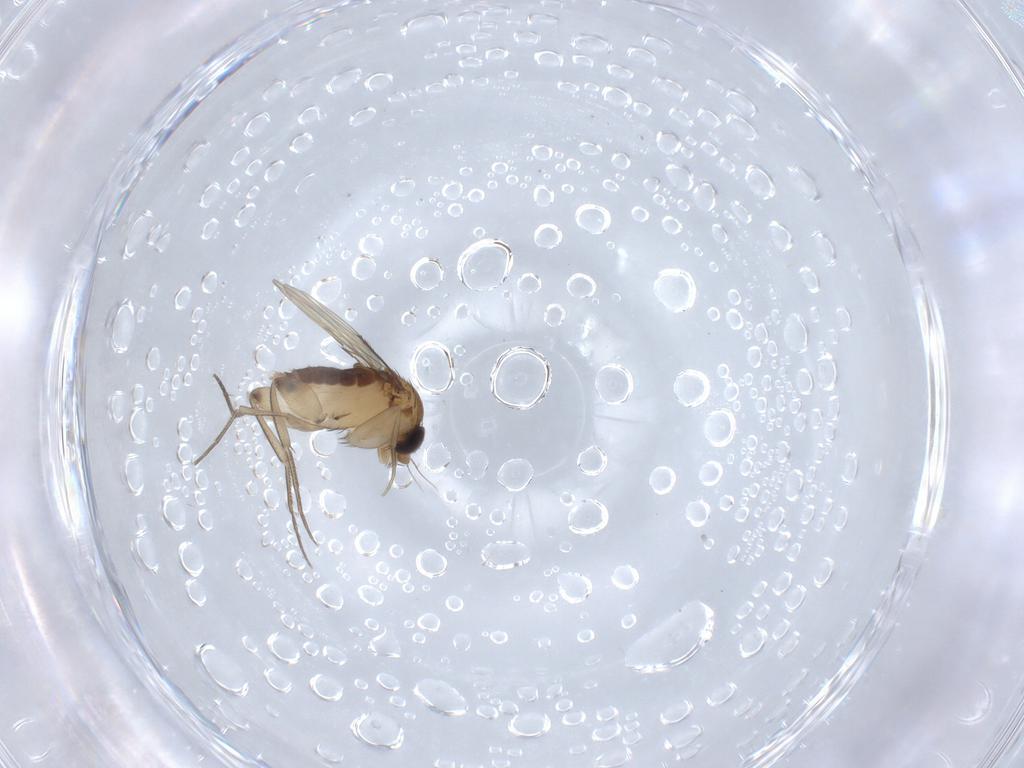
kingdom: Animalia
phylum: Arthropoda
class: Insecta
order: Diptera
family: Phoridae
